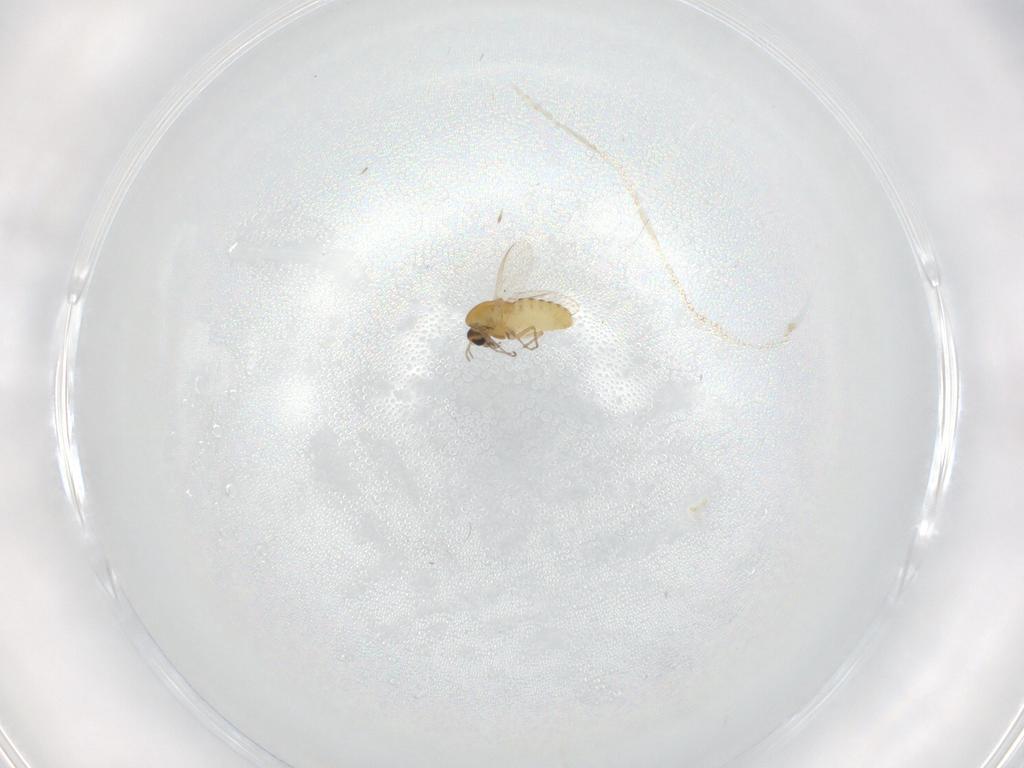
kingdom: Animalia
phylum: Arthropoda
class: Insecta
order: Diptera
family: Chironomidae
